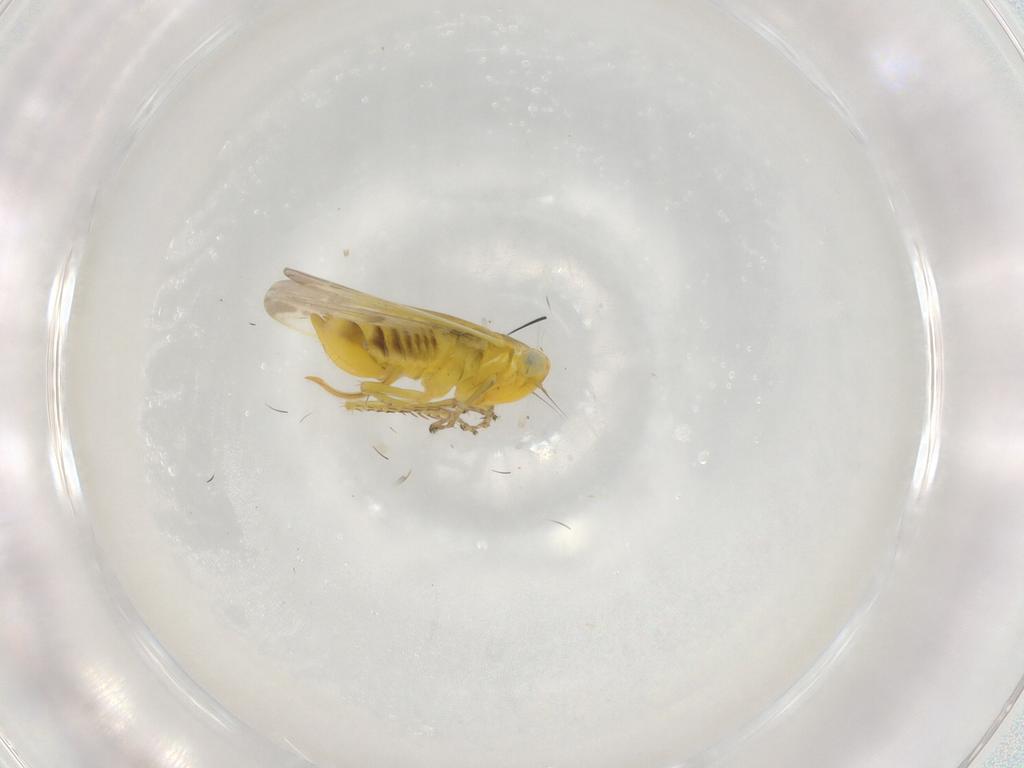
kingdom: Animalia
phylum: Arthropoda
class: Insecta
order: Hemiptera
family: Cicadellidae
